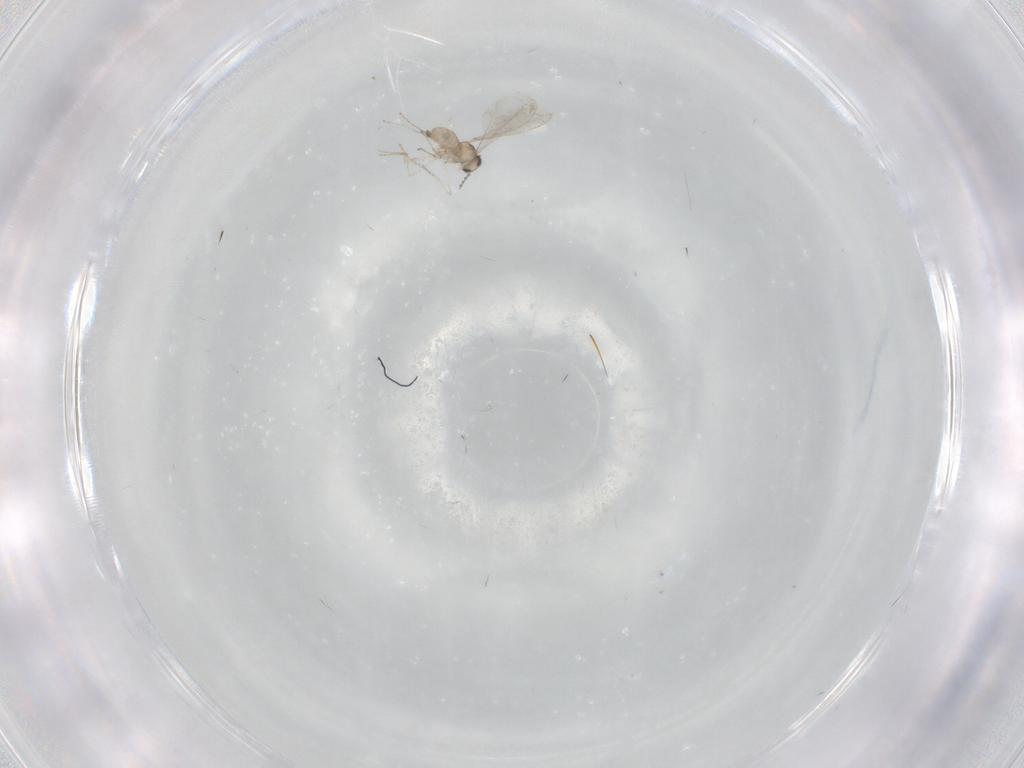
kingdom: Animalia
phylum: Arthropoda
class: Insecta
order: Diptera
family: Cecidomyiidae
